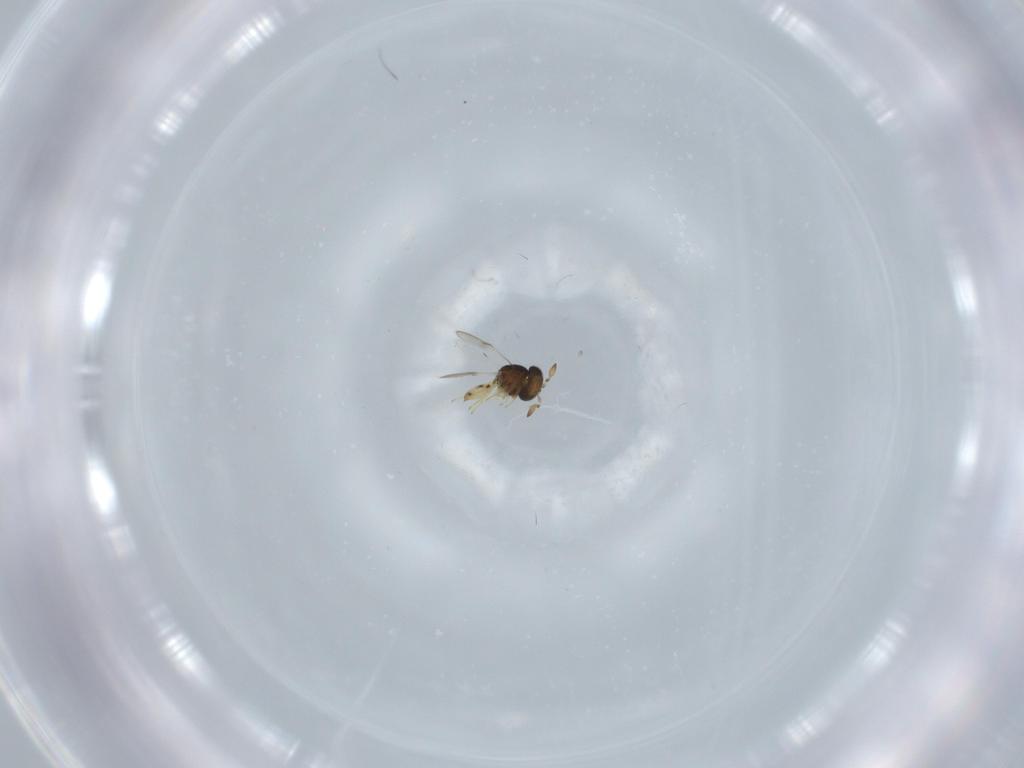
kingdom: Animalia
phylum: Arthropoda
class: Insecta
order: Hymenoptera
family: Scelionidae
